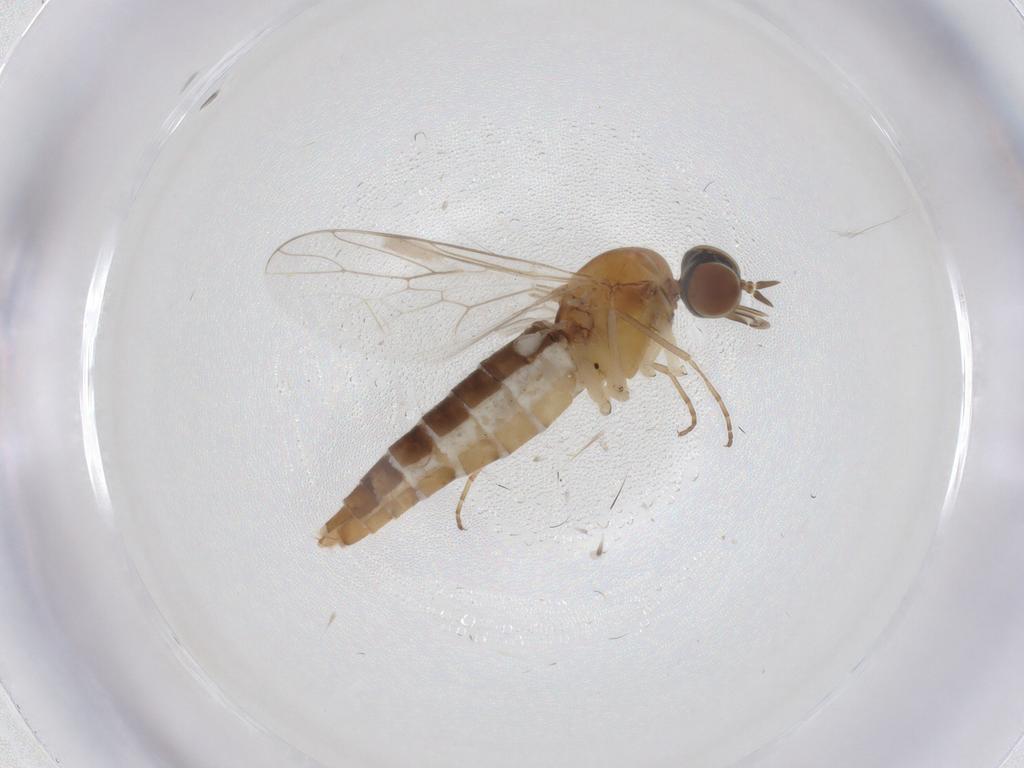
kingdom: Animalia
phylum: Arthropoda
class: Insecta
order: Diptera
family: Scenopinidae
